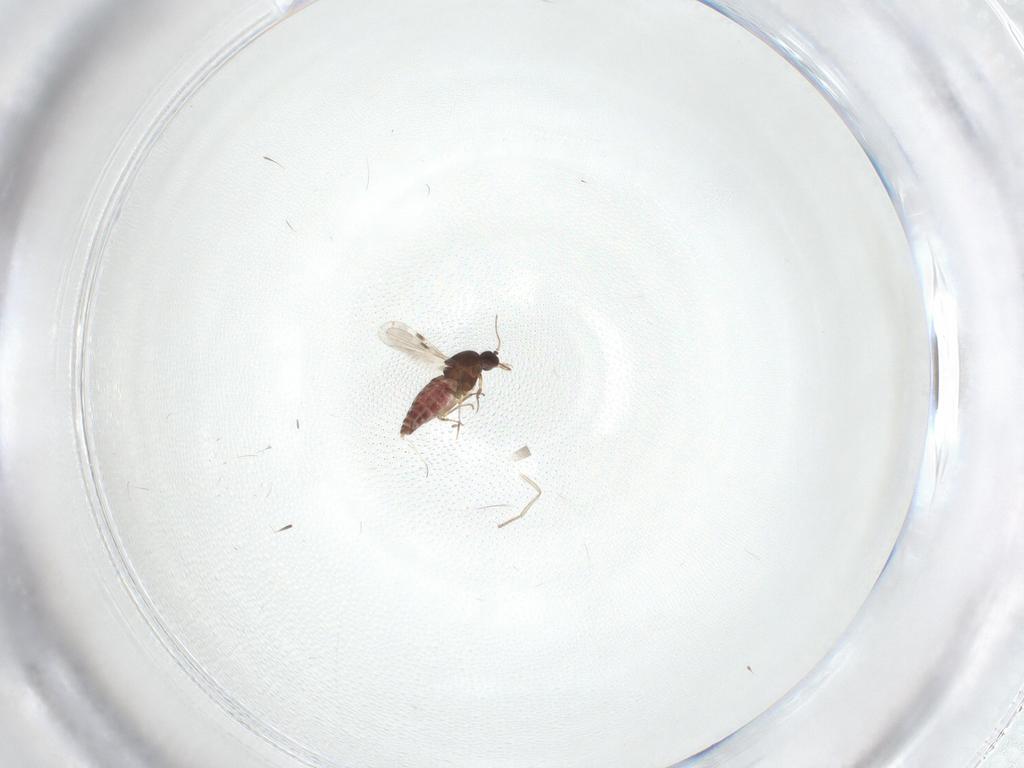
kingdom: Animalia
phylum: Arthropoda
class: Insecta
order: Diptera
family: Psychodidae
